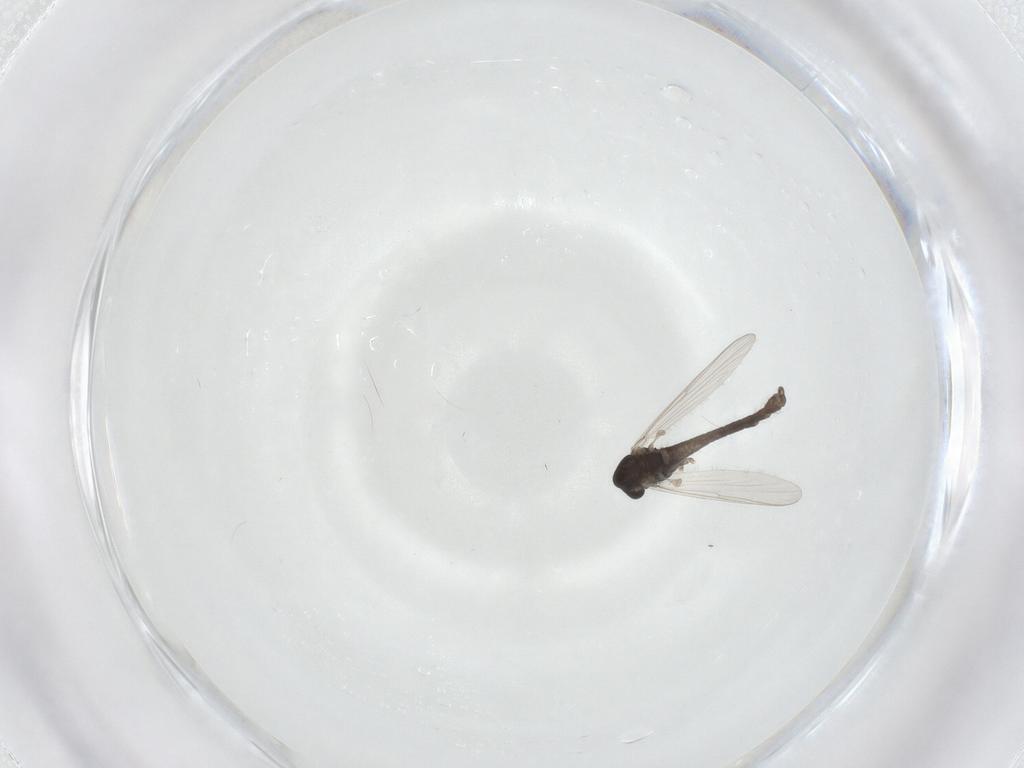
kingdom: Animalia
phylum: Arthropoda
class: Insecta
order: Diptera
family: Chironomidae
